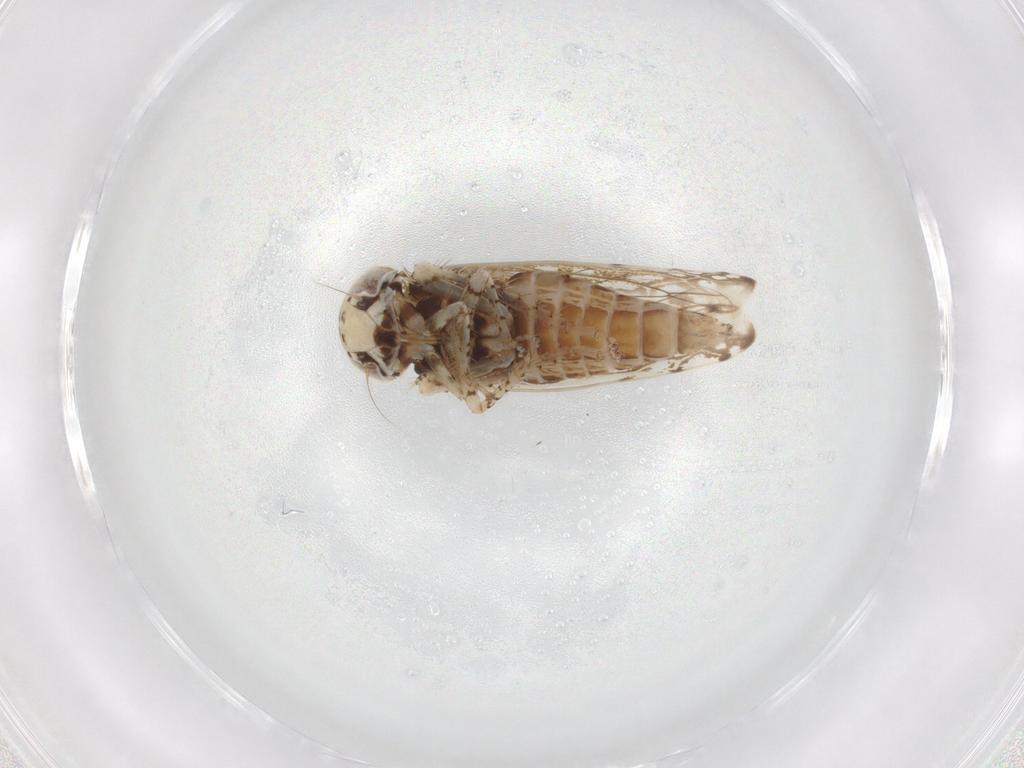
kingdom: Animalia
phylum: Arthropoda
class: Insecta
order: Hemiptera
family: Cicadellidae
